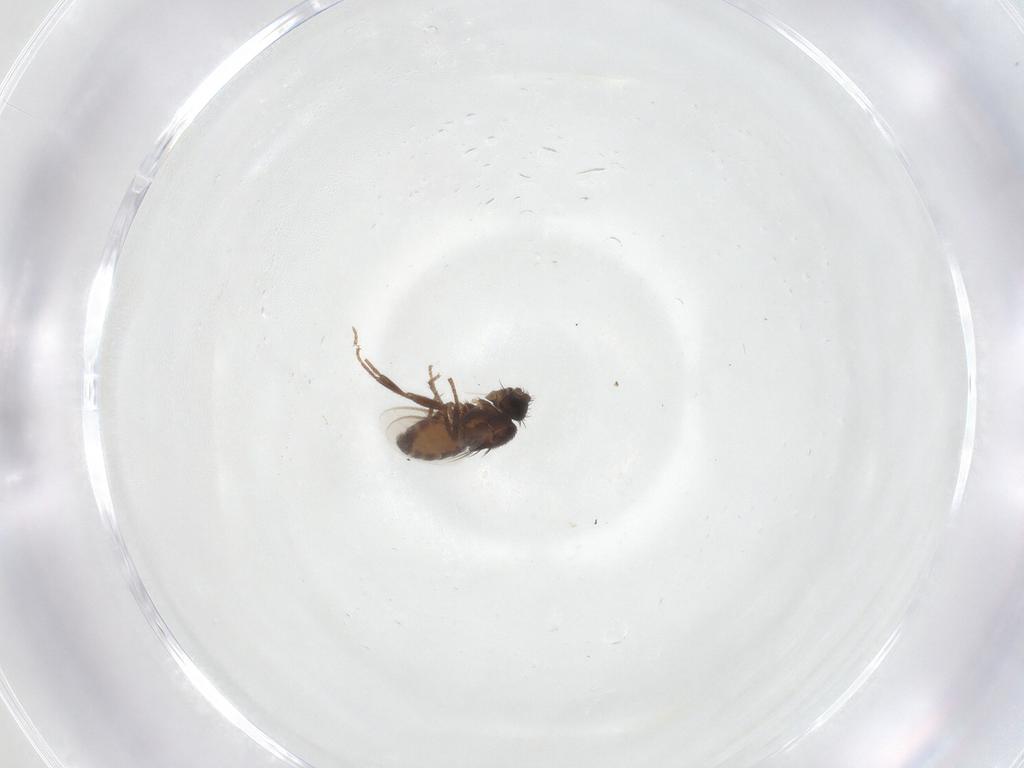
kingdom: Animalia
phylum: Arthropoda
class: Insecta
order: Diptera
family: Sphaeroceridae
